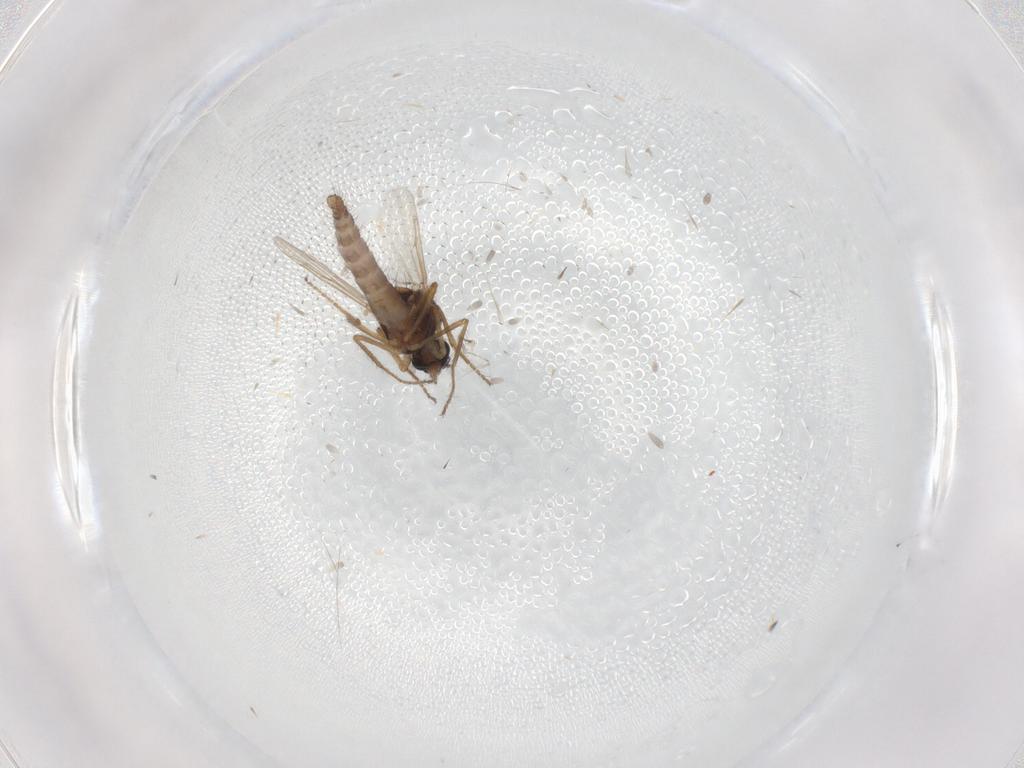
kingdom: Animalia
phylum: Arthropoda
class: Insecta
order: Diptera
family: Ceratopogonidae
